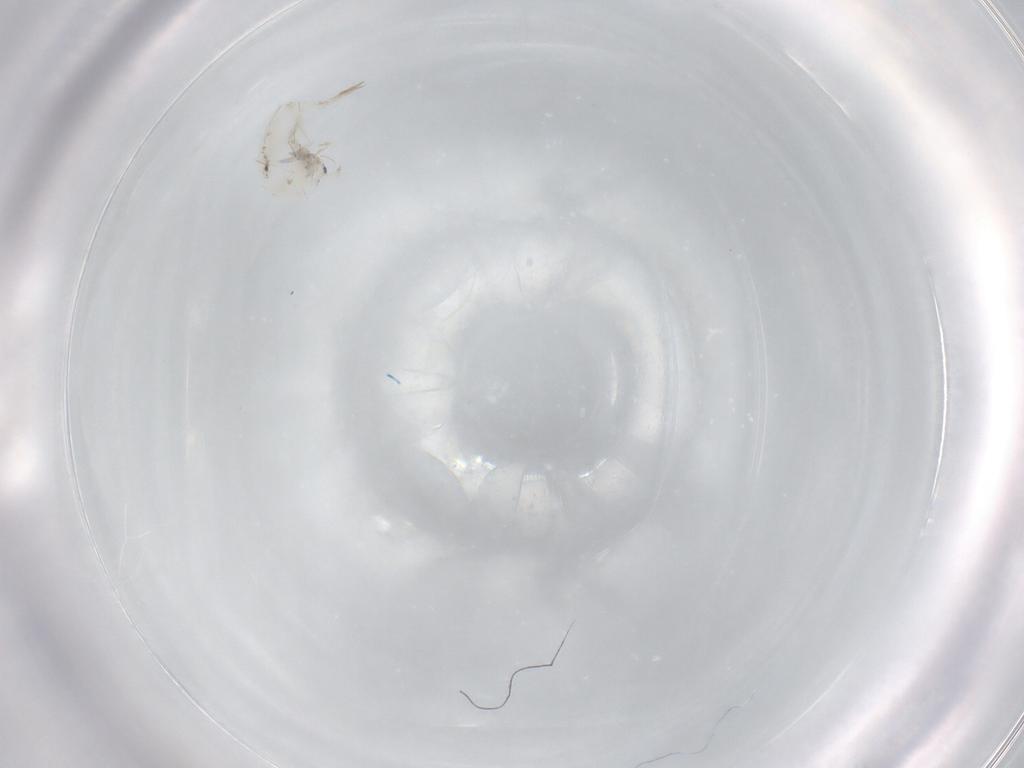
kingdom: Animalia
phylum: Arthropoda
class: Collembola
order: Entomobryomorpha
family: Entomobryidae
